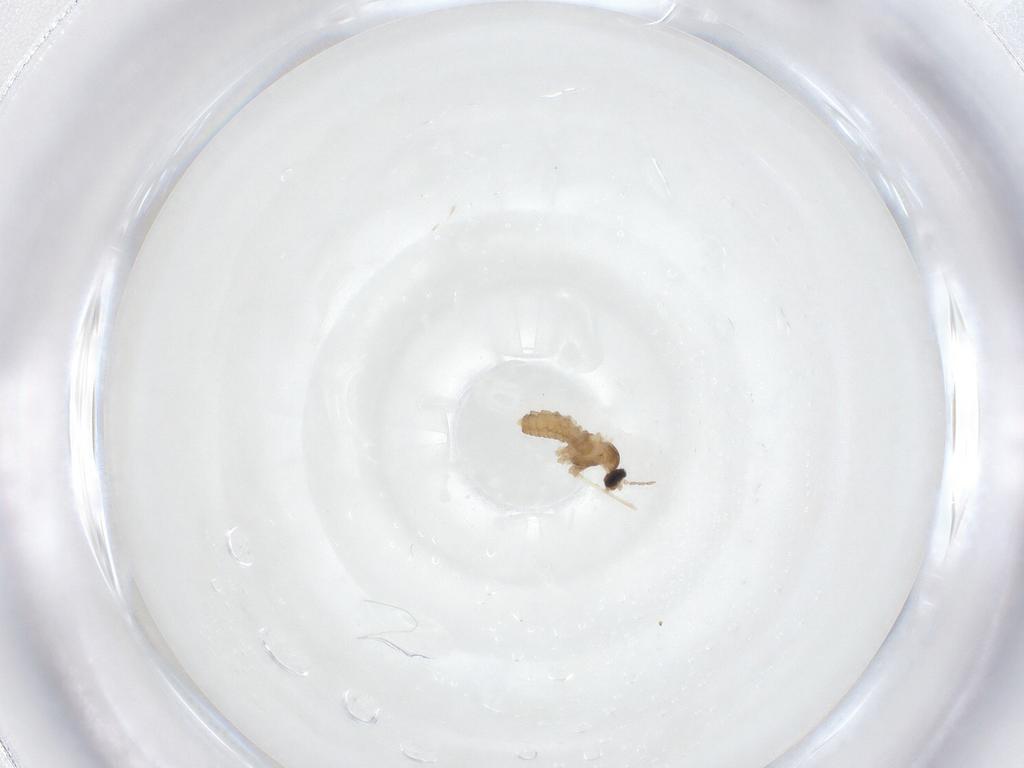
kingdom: Animalia
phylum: Arthropoda
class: Insecta
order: Diptera
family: Cecidomyiidae
